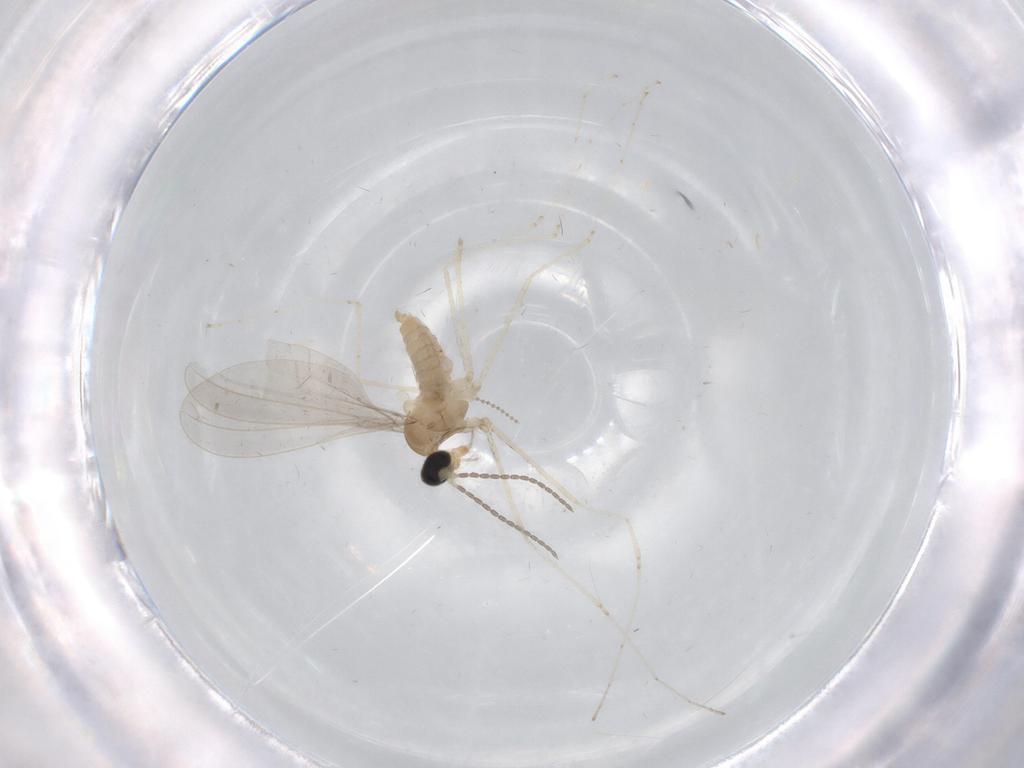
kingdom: Animalia
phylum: Arthropoda
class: Insecta
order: Diptera
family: Cecidomyiidae
